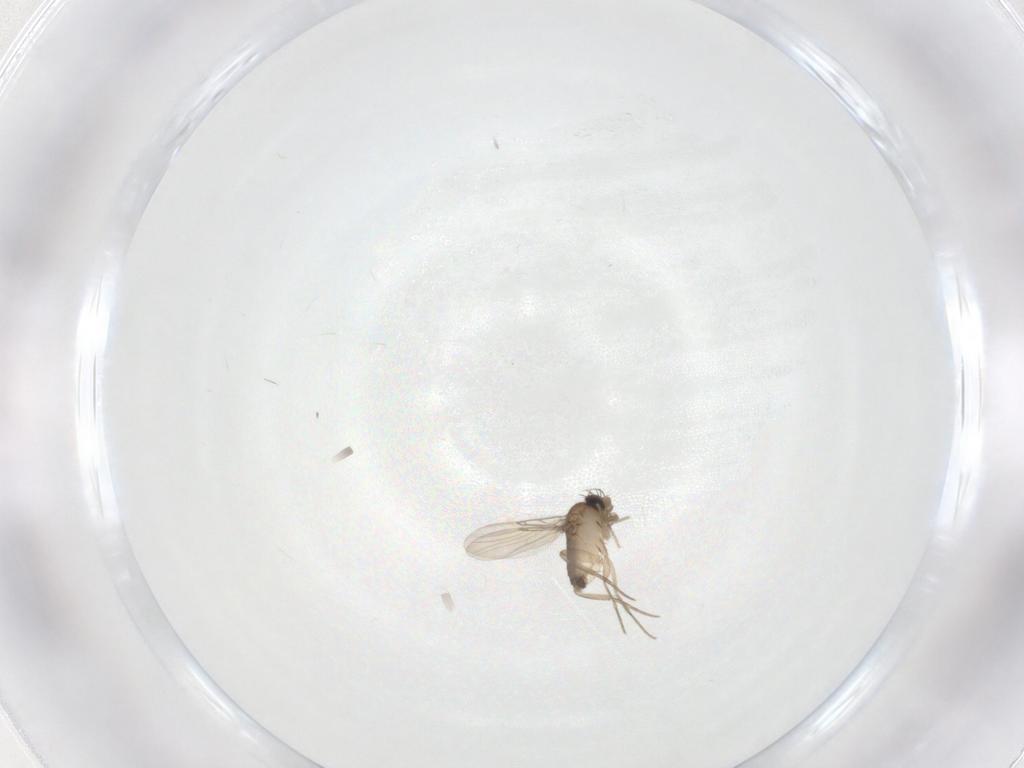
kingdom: Animalia
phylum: Arthropoda
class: Insecta
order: Diptera
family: Phoridae
